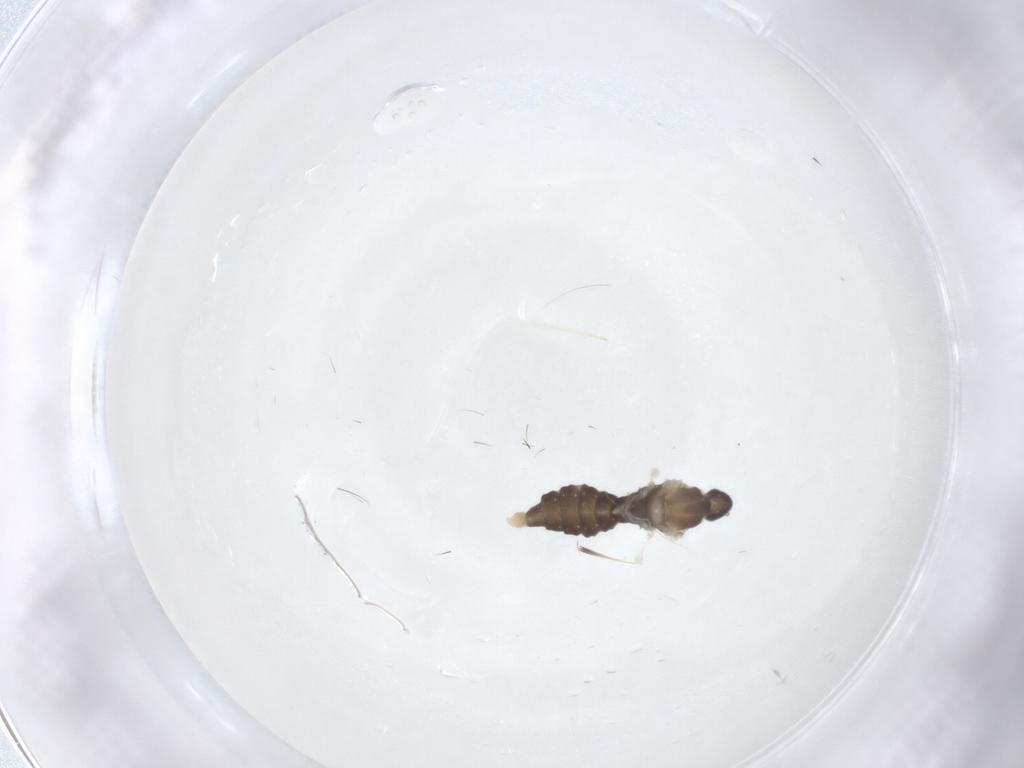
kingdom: Animalia
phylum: Arthropoda
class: Insecta
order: Diptera
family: Cecidomyiidae
